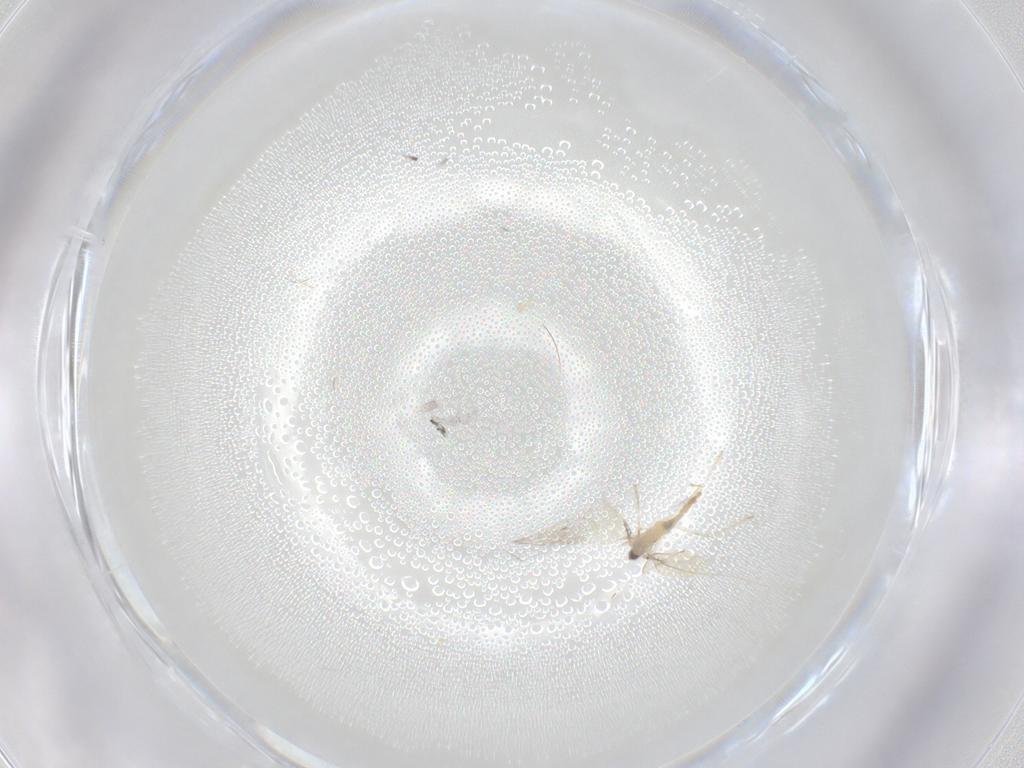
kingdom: Animalia
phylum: Arthropoda
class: Insecta
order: Diptera
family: Cecidomyiidae
